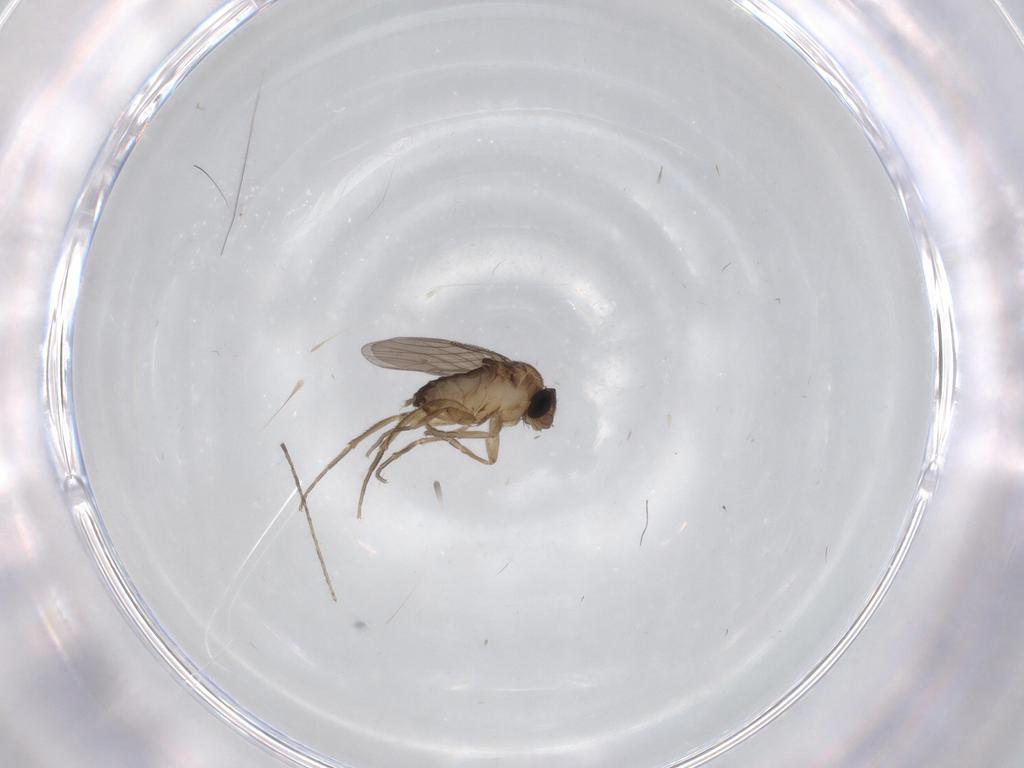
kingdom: Animalia
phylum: Arthropoda
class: Insecta
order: Diptera
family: Phoridae
